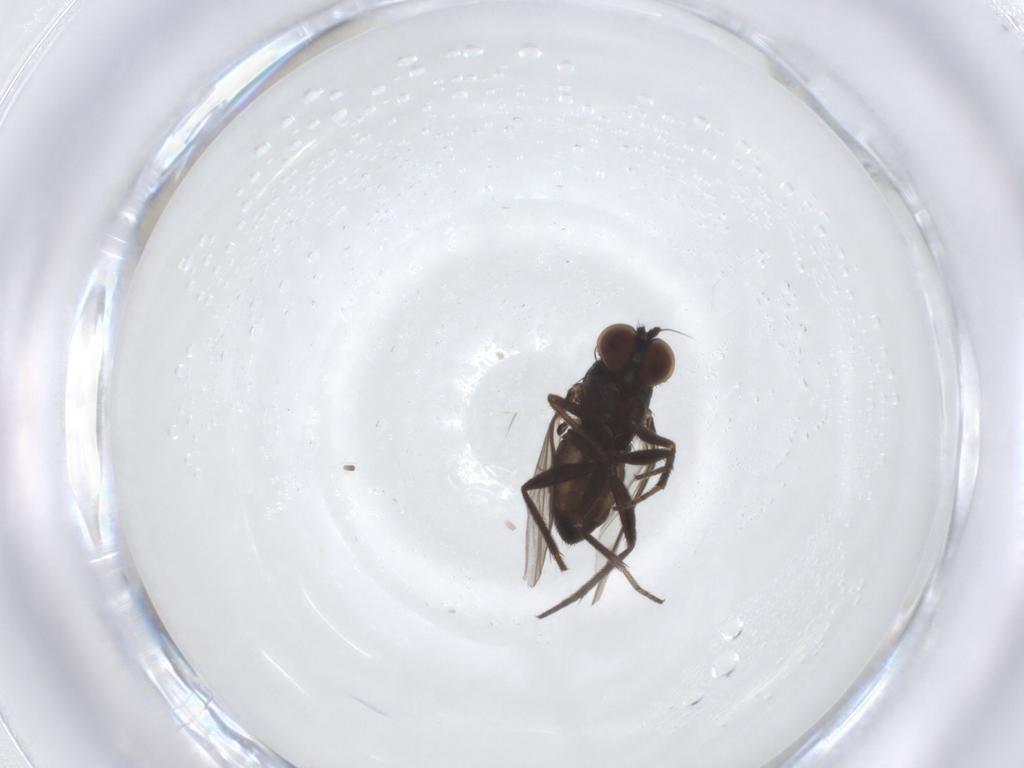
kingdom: Animalia
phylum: Arthropoda
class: Insecta
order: Diptera
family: Dolichopodidae
